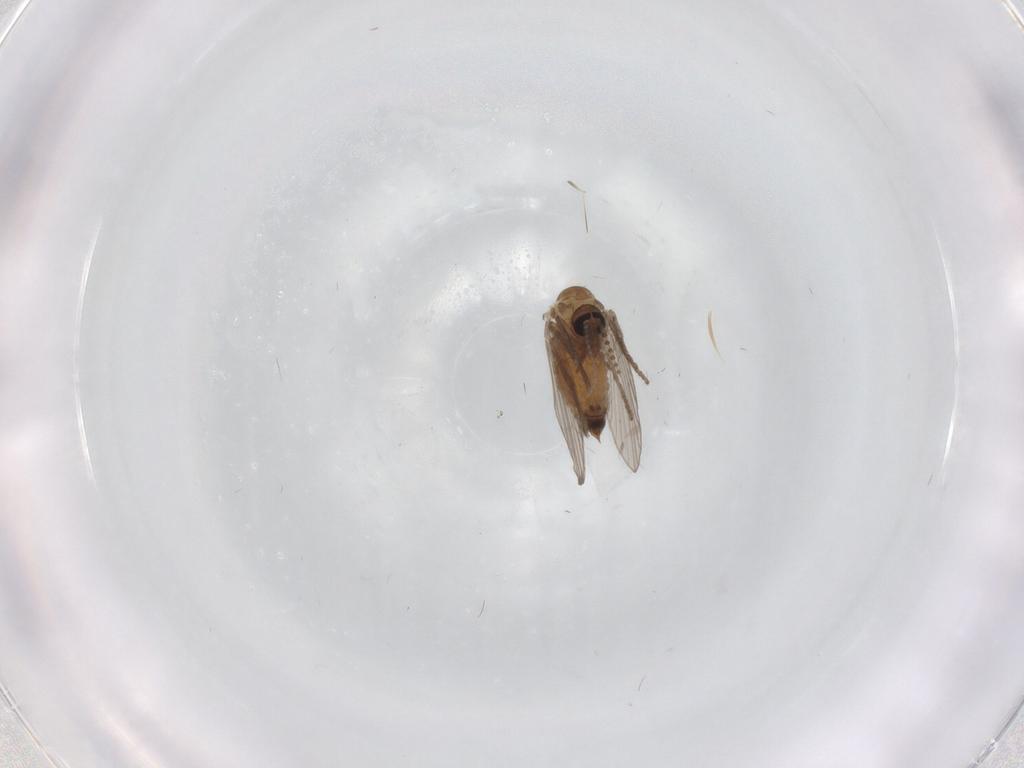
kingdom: Animalia
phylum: Arthropoda
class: Insecta
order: Diptera
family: Psychodidae
